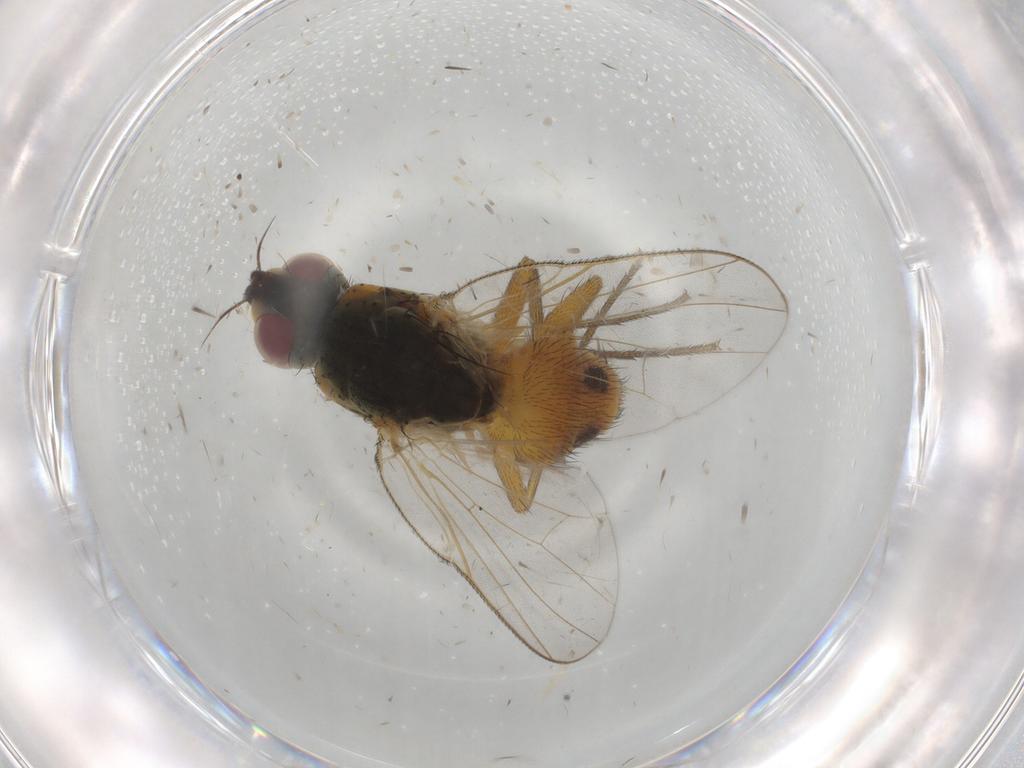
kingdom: Animalia
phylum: Arthropoda
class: Insecta
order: Diptera
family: Muscidae
